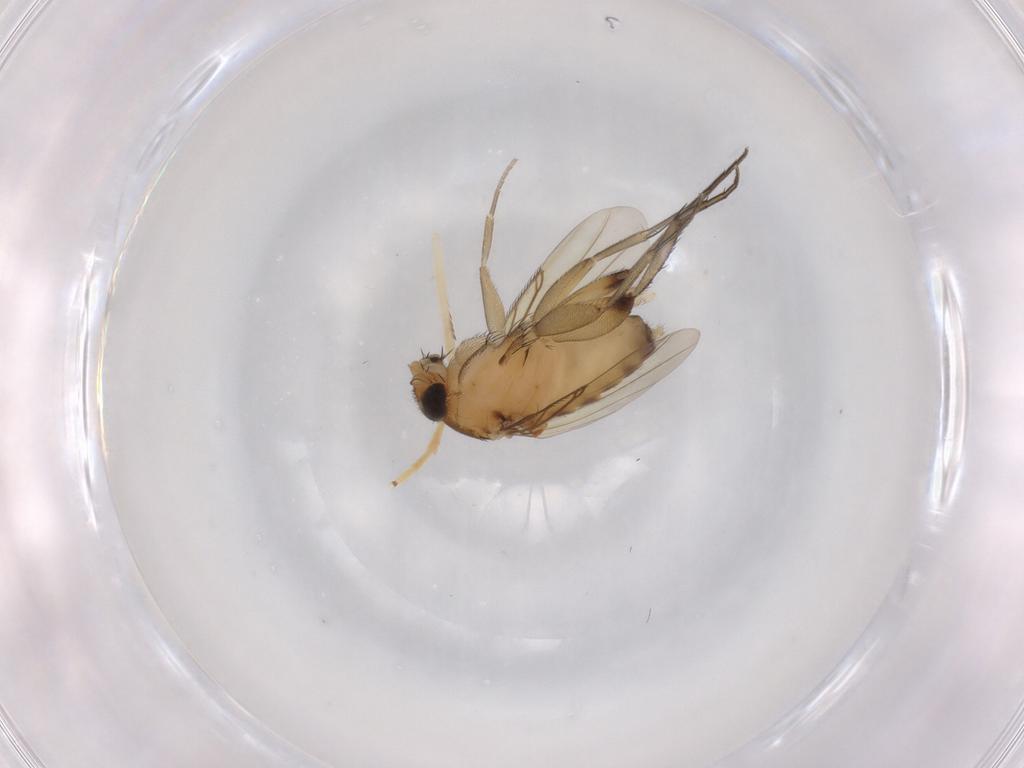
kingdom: Animalia
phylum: Arthropoda
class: Insecta
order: Diptera
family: Phoridae
